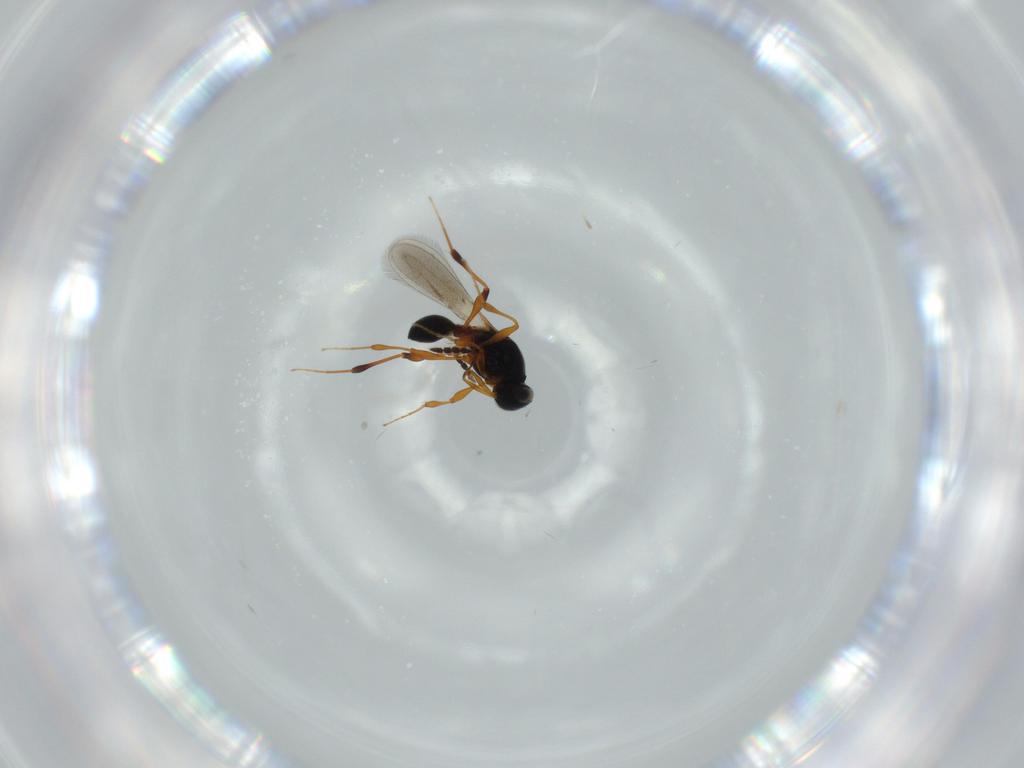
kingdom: Animalia
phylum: Arthropoda
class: Insecta
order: Hymenoptera
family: Platygastridae
